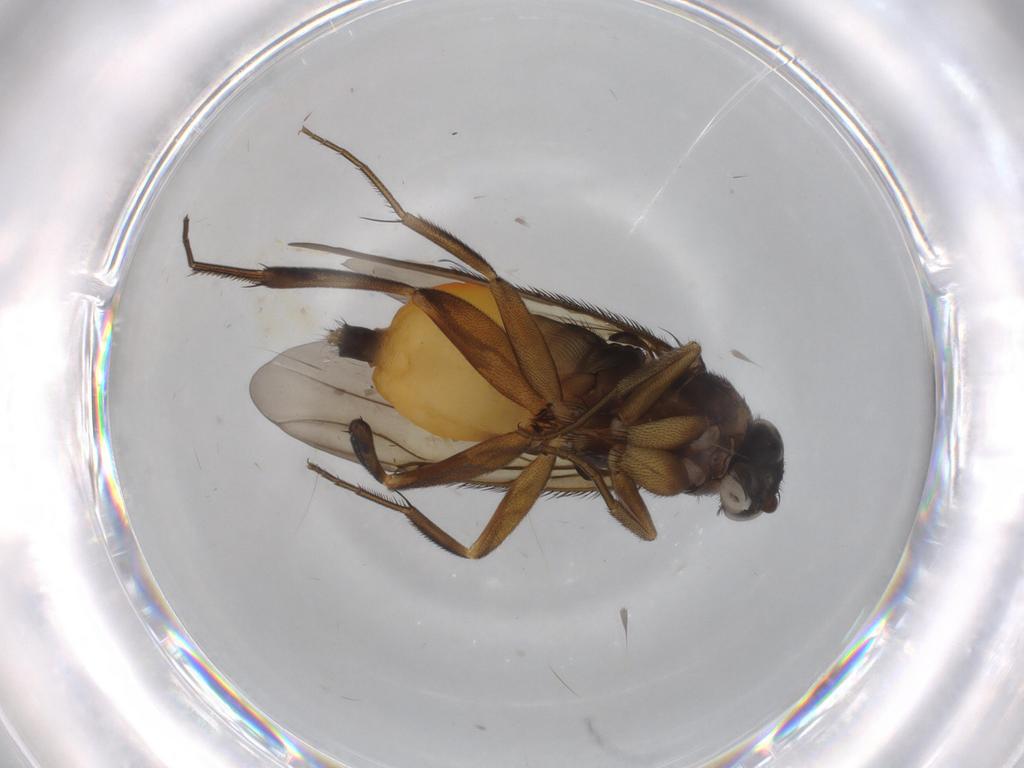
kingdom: Animalia
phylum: Arthropoda
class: Insecta
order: Diptera
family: Phoridae
